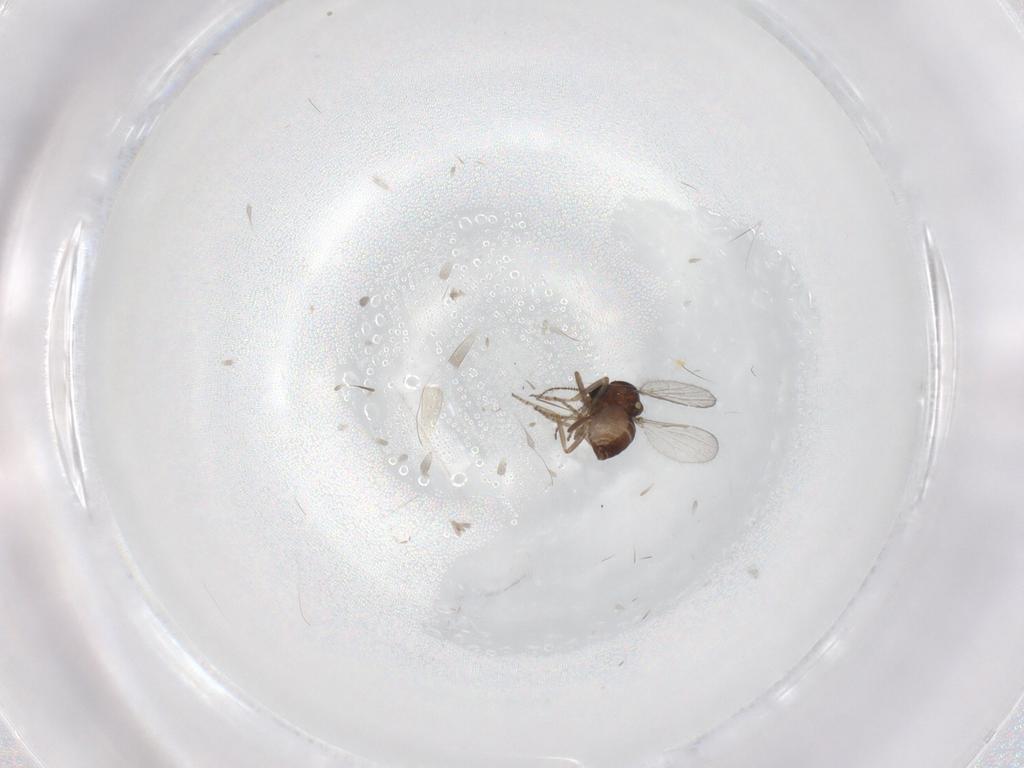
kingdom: Animalia
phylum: Arthropoda
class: Insecta
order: Diptera
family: Ceratopogonidae
